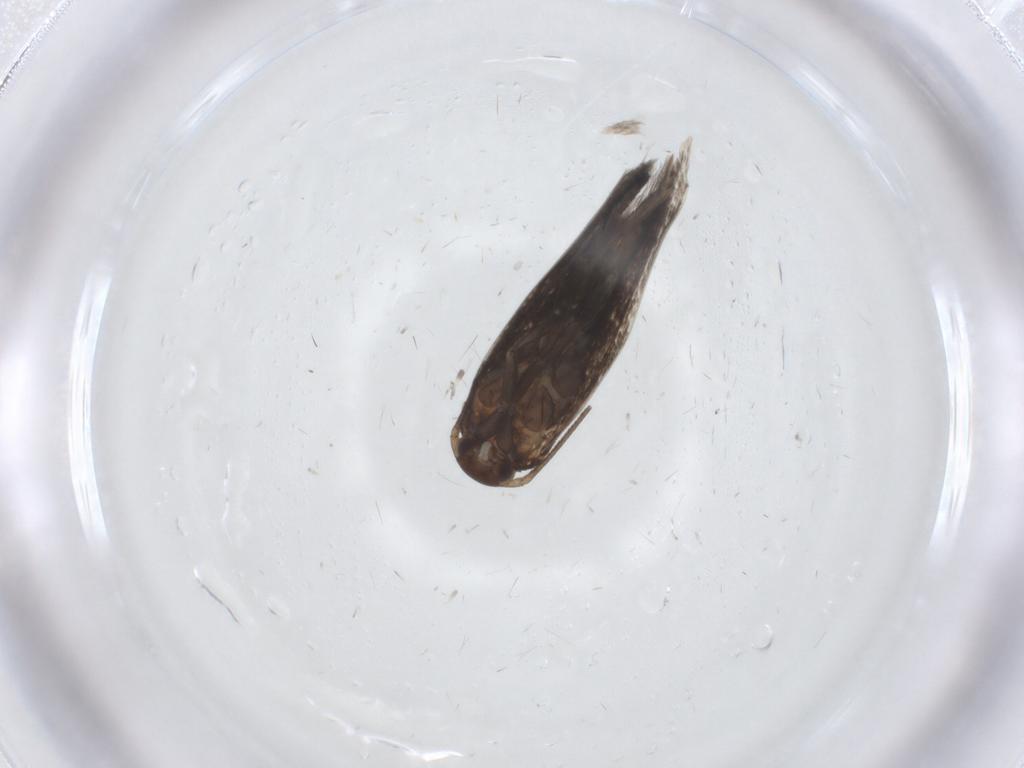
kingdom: Animalia
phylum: Arthropoda
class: Insecta
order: Lepidoptera
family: Elachistidae
